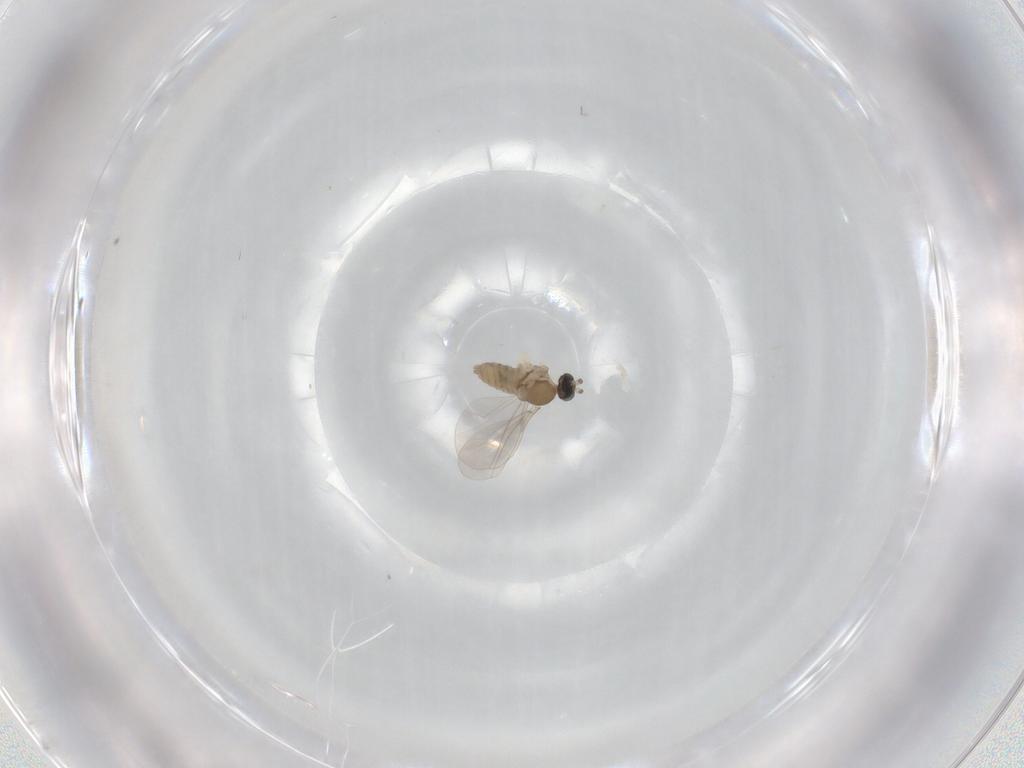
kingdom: Animalia
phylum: Arthropoda
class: Insecta
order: Diptera
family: Cecidomyiidae
